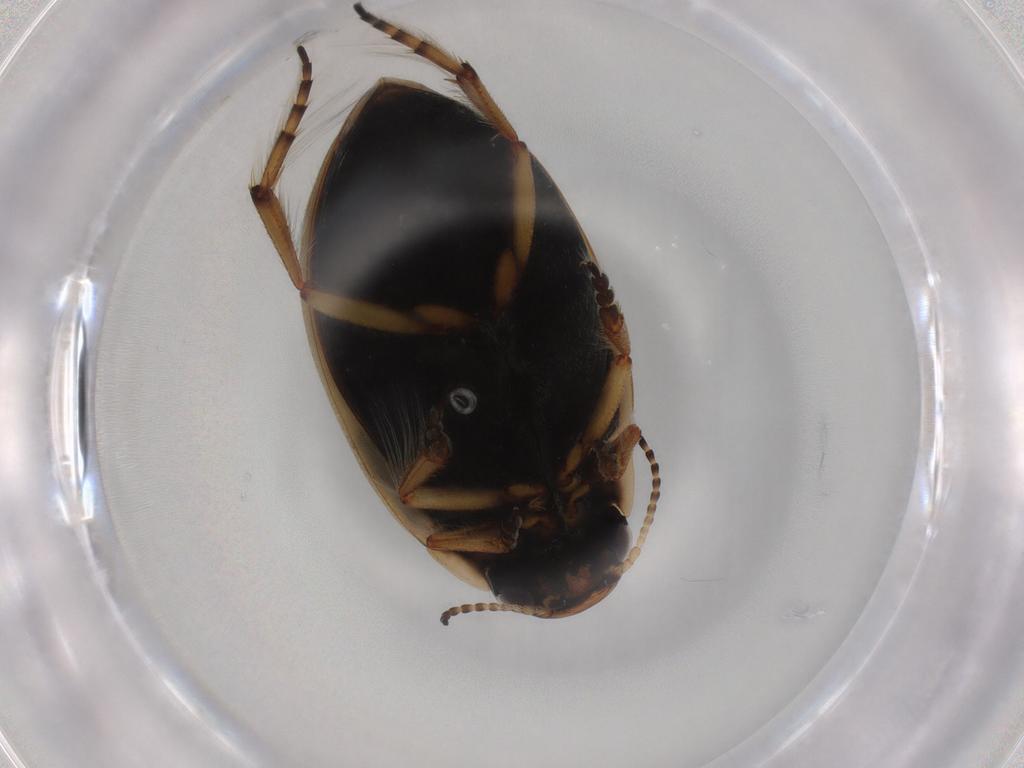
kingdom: Animalia
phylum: Arthropoda
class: Insecta
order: Coleoptera
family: Dytiscidae
